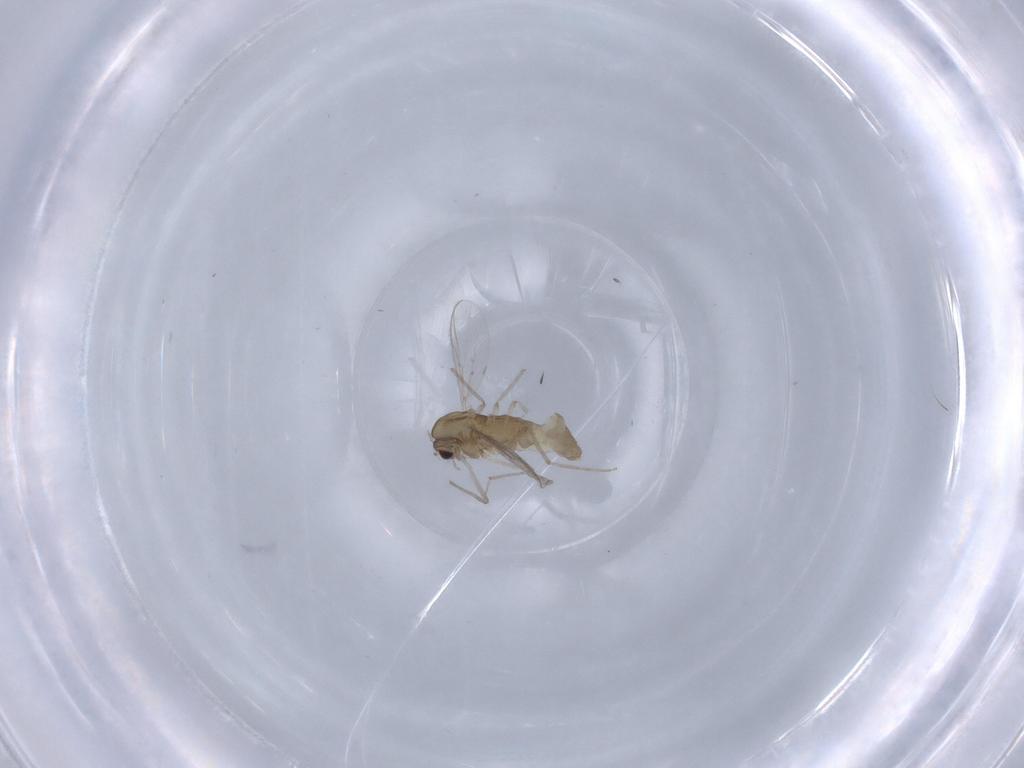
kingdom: Animalia
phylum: Arthropoda
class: Insecta
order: Diptera
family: Chironomidae
